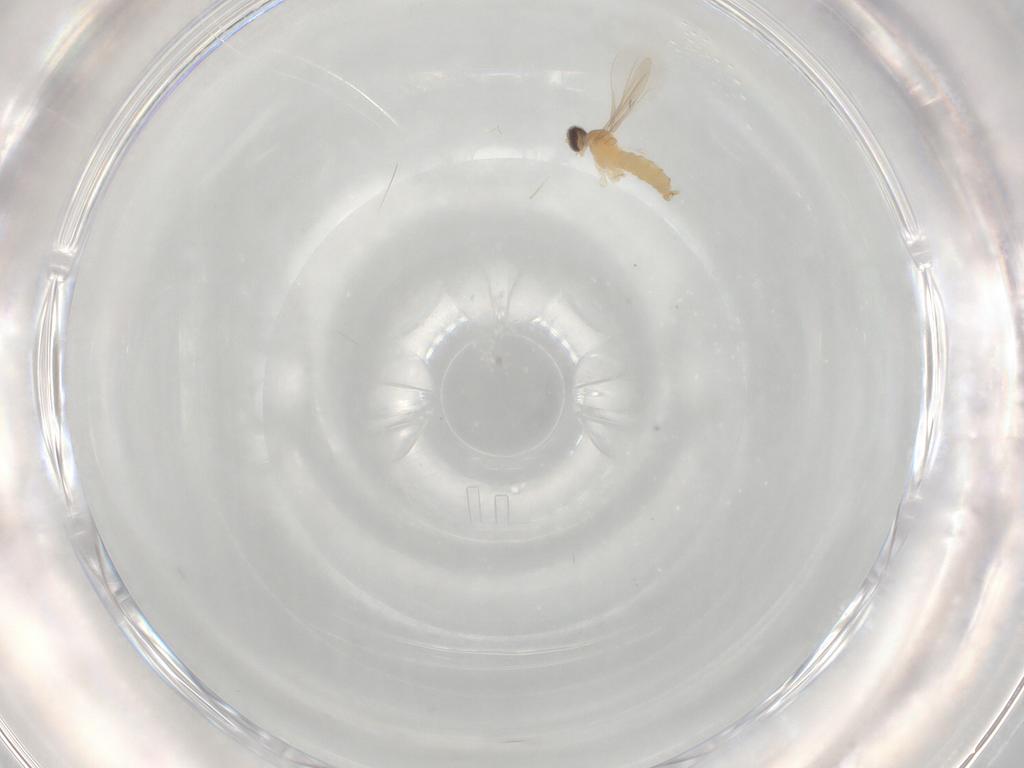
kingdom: Animalia
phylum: Arthropoda
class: Insecta
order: Diptera
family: Cecidomyiidae
